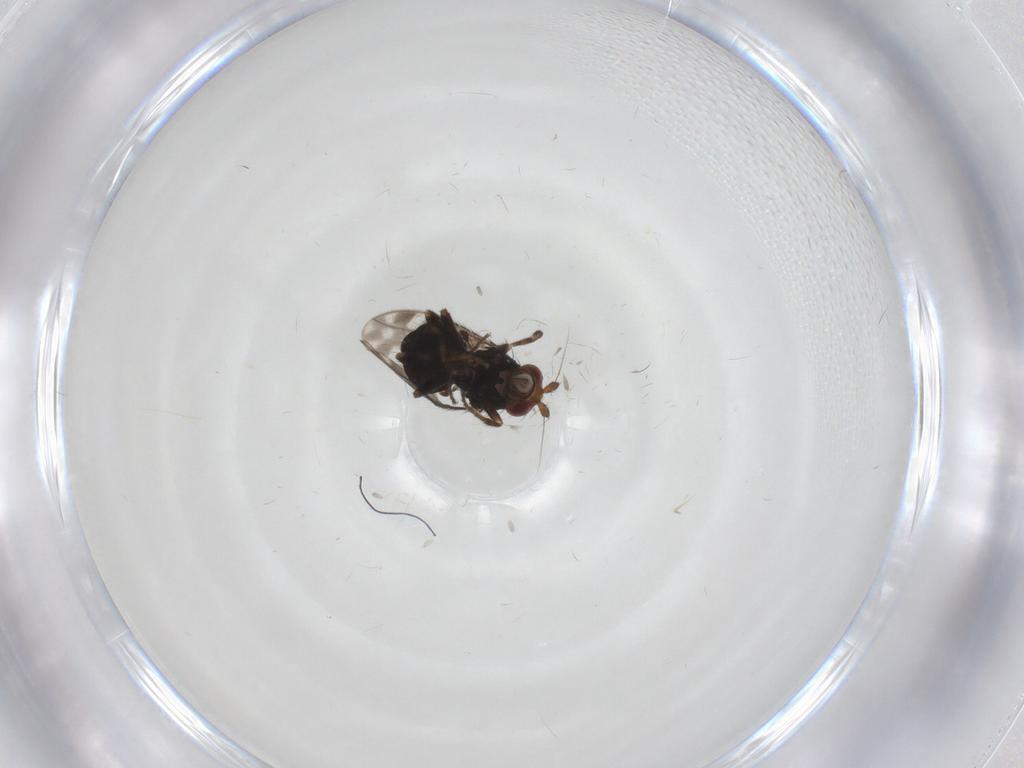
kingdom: Animalia
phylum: Arthropoda
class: Insecta
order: Diptera
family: Sphaeroceridae
